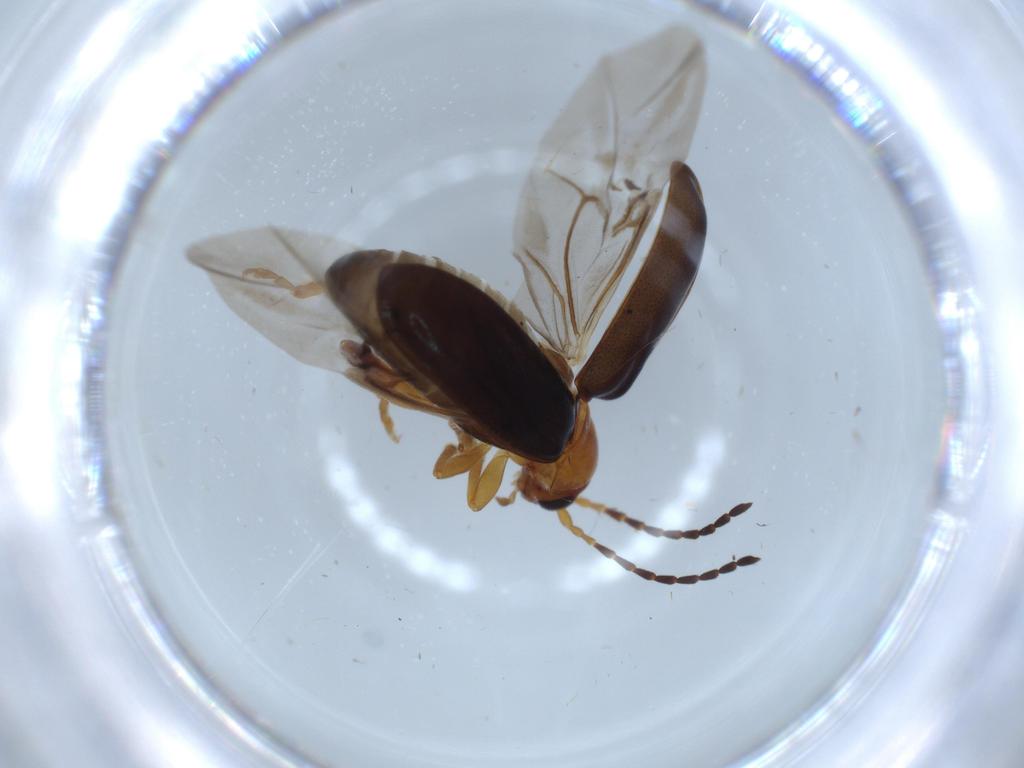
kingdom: Animalia
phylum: Arthropoda
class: Insecta
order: Coleoptera
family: Chrysomelidae
